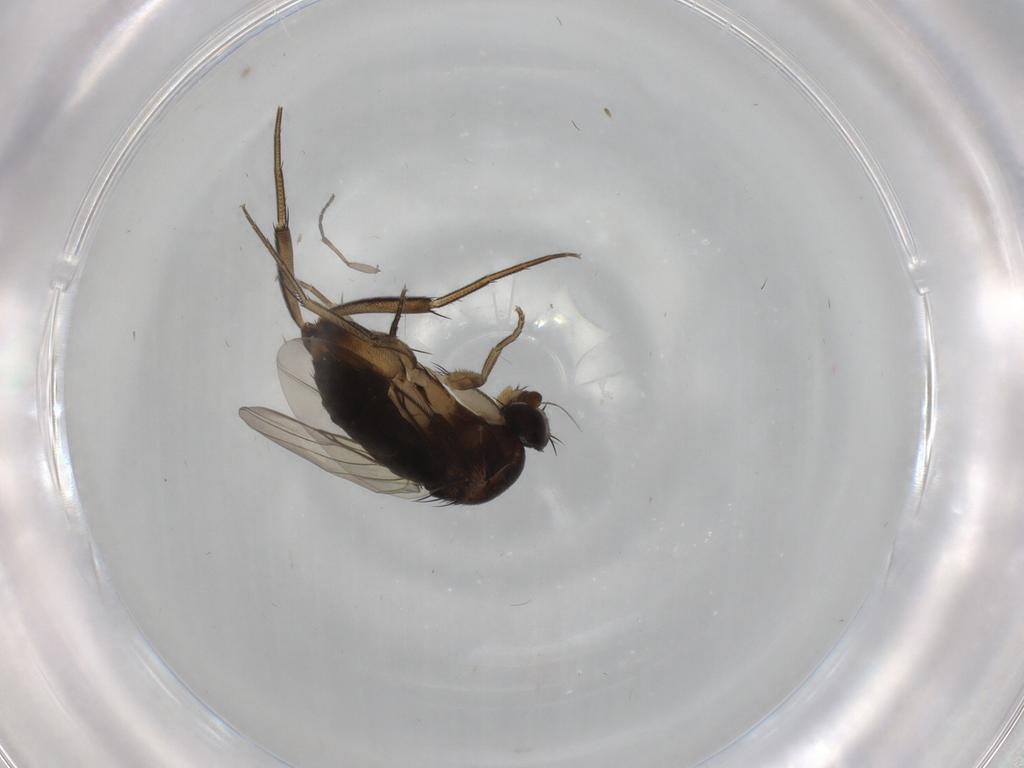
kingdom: Animalia
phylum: Arthropoda
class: Insecta
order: Diptera
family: Phoridae
